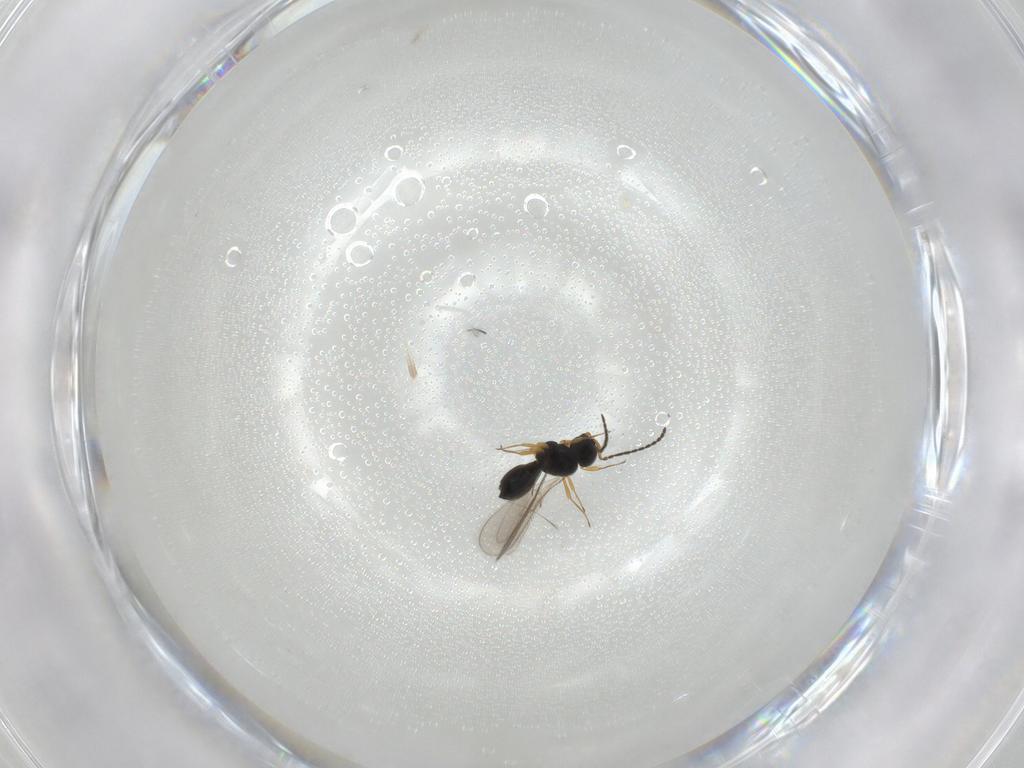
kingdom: Animalia
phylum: Arthropoda
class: Insecta
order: Hymenoptera
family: Scelionidae
